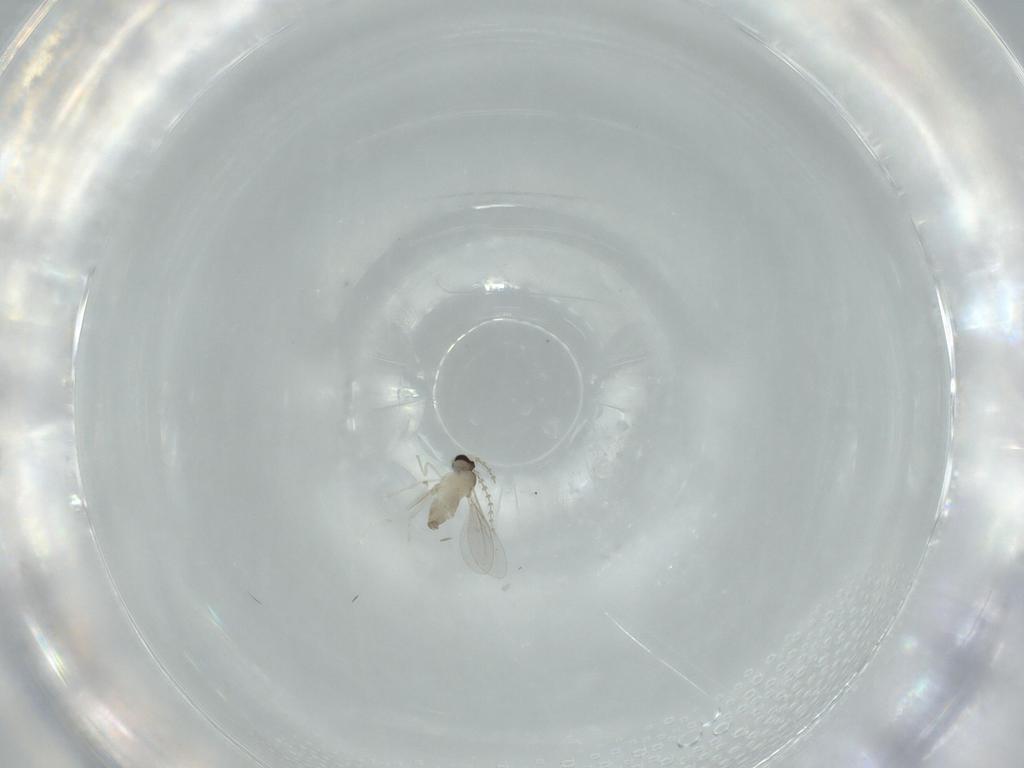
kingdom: Animalia
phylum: Arthropoda
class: Insecta
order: Diptera
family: Cecidomyiidae
